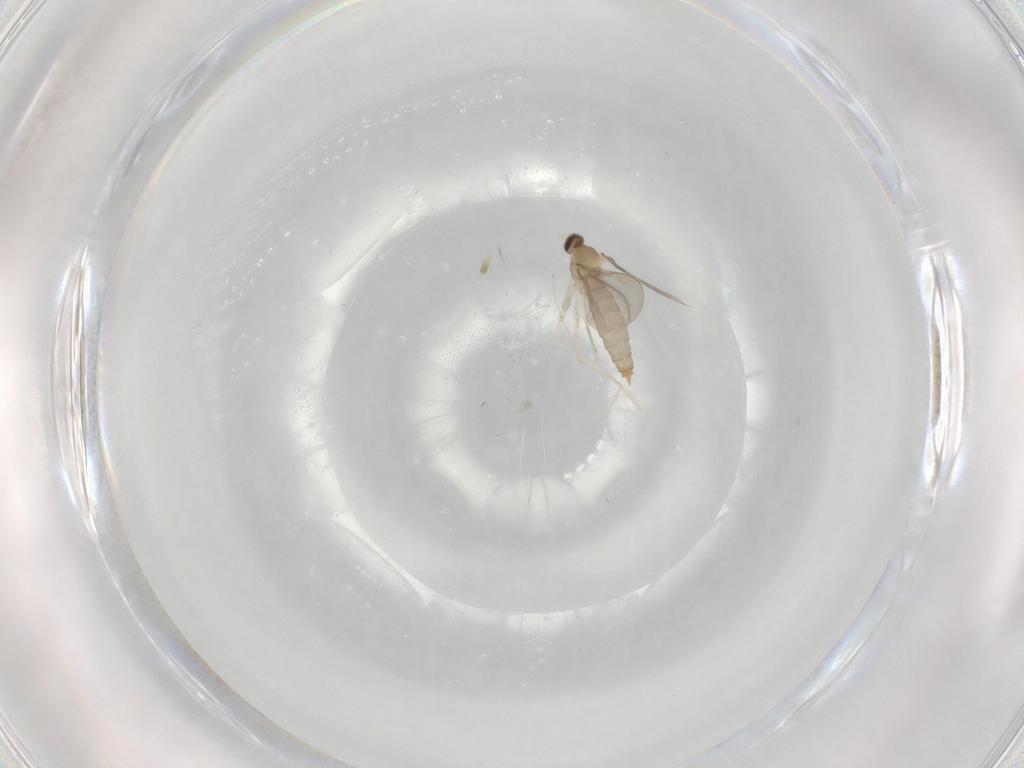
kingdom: Animalia
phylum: Arthropoda
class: Insecta
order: Diptera
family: Cecidomyiidae
